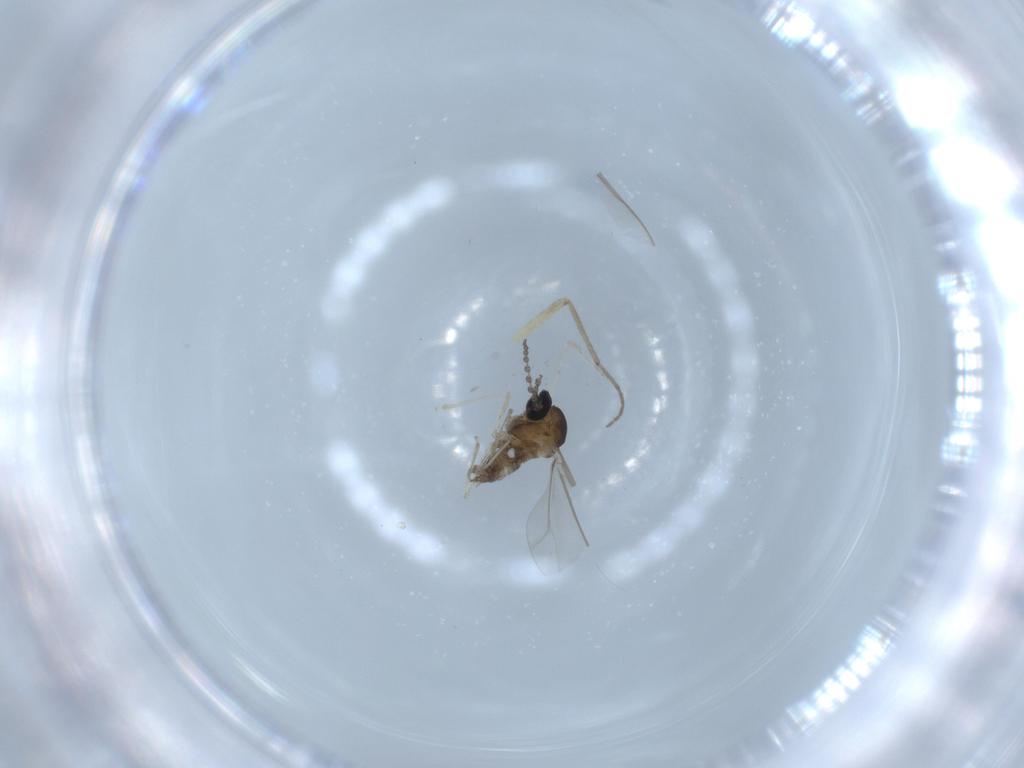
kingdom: Animalia
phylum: Arthropoda
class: Insecta
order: Diptera
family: Cecidomyiidae
